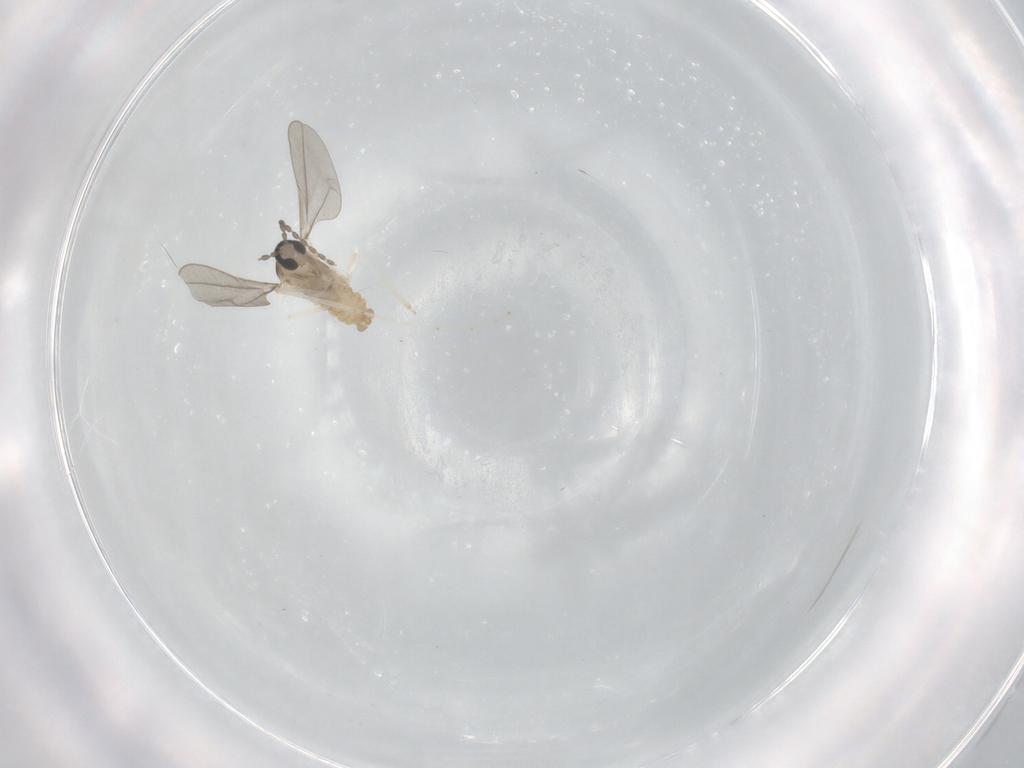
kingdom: Animalia
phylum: Arthropoda
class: Insecta
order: Diptera
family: Cecidomyiidae
